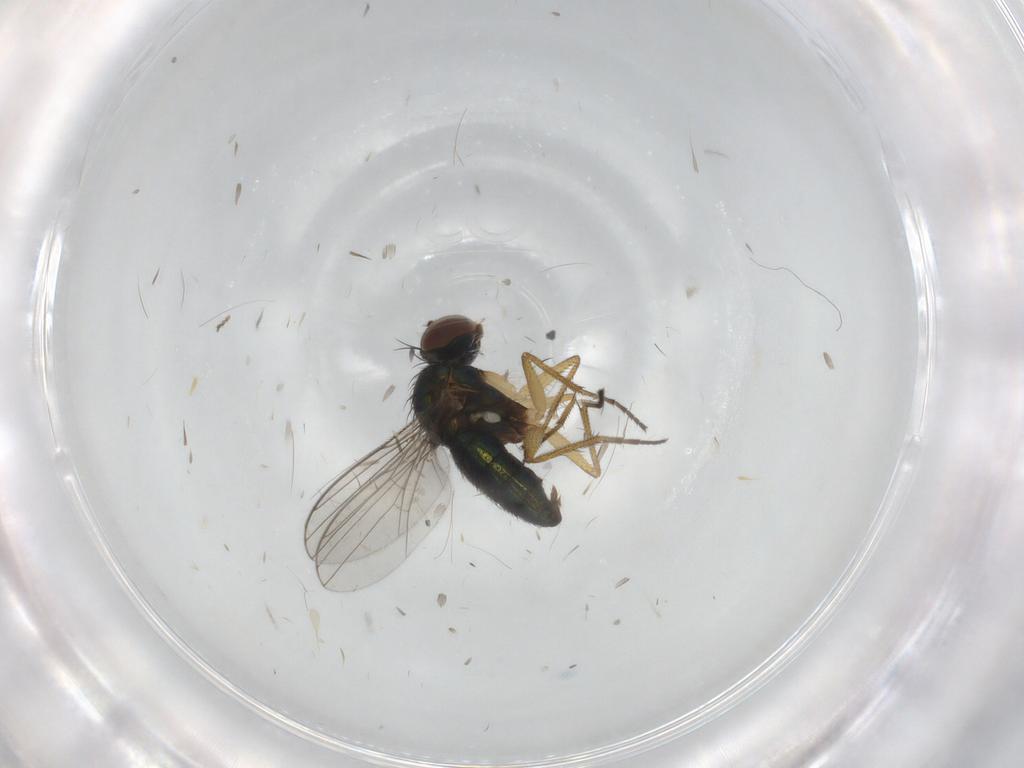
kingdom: Animalia
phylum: Arthropoda
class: Insecta
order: Diptera
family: Dolichopodidae
